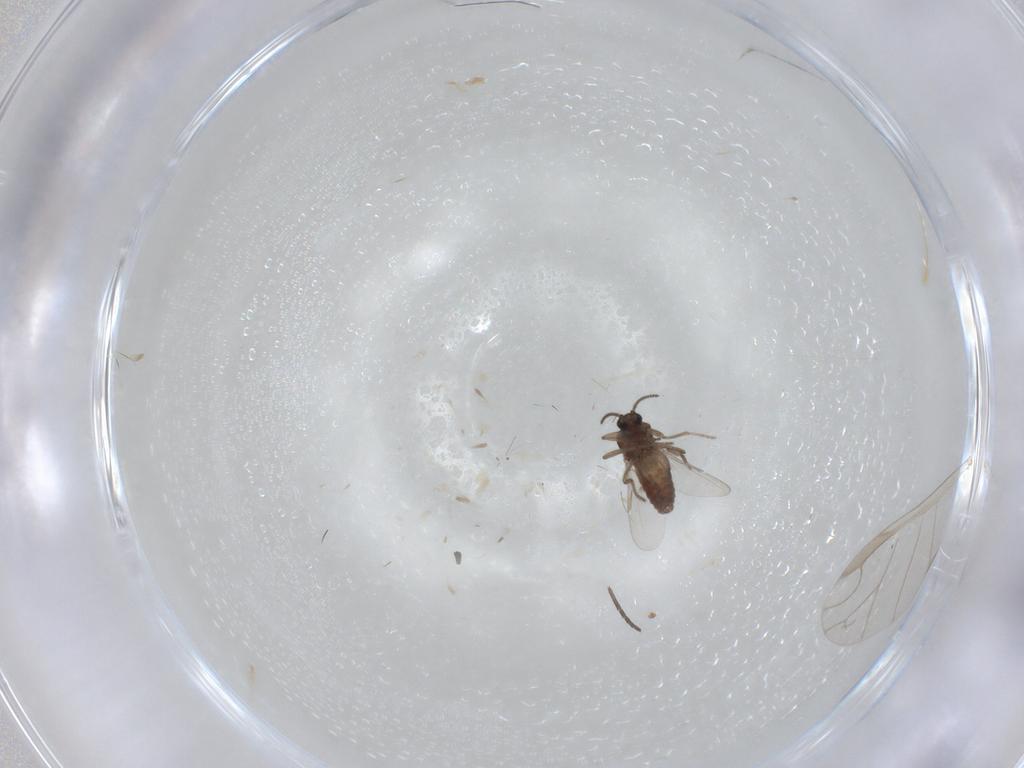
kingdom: Animalia
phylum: Arthropoda
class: Insecta
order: Diptera
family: Ceratopogonidae
